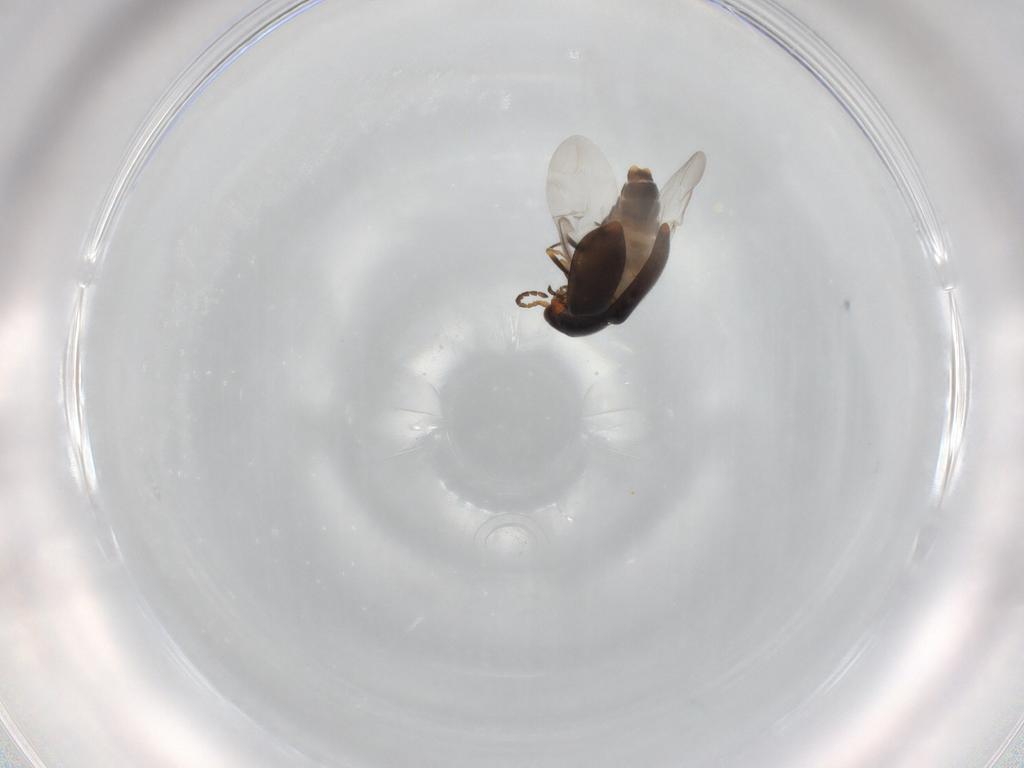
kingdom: Animalia
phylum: Arthropoda
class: Insecta
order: Coleoptera
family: Melyridae
